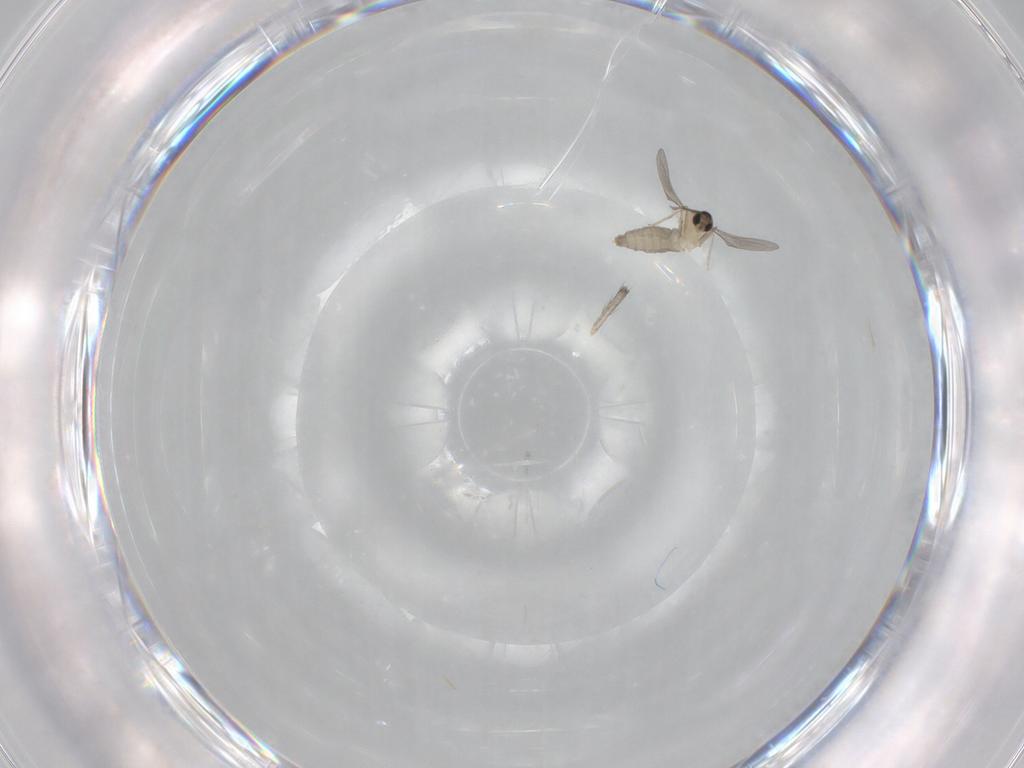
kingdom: Animalia
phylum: Arthropoda
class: Insecta
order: Diptera
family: Cecidomyiidae
